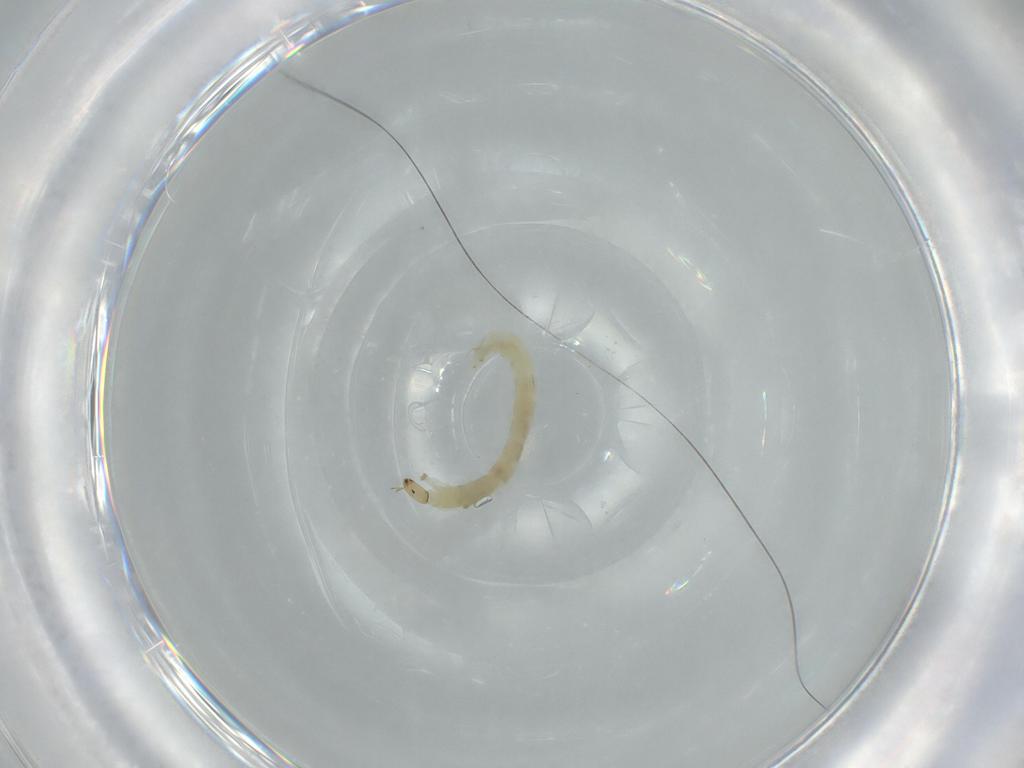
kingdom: Animalia
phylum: Arthropoda
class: Insecta
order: Diptera
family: Chironomidae
